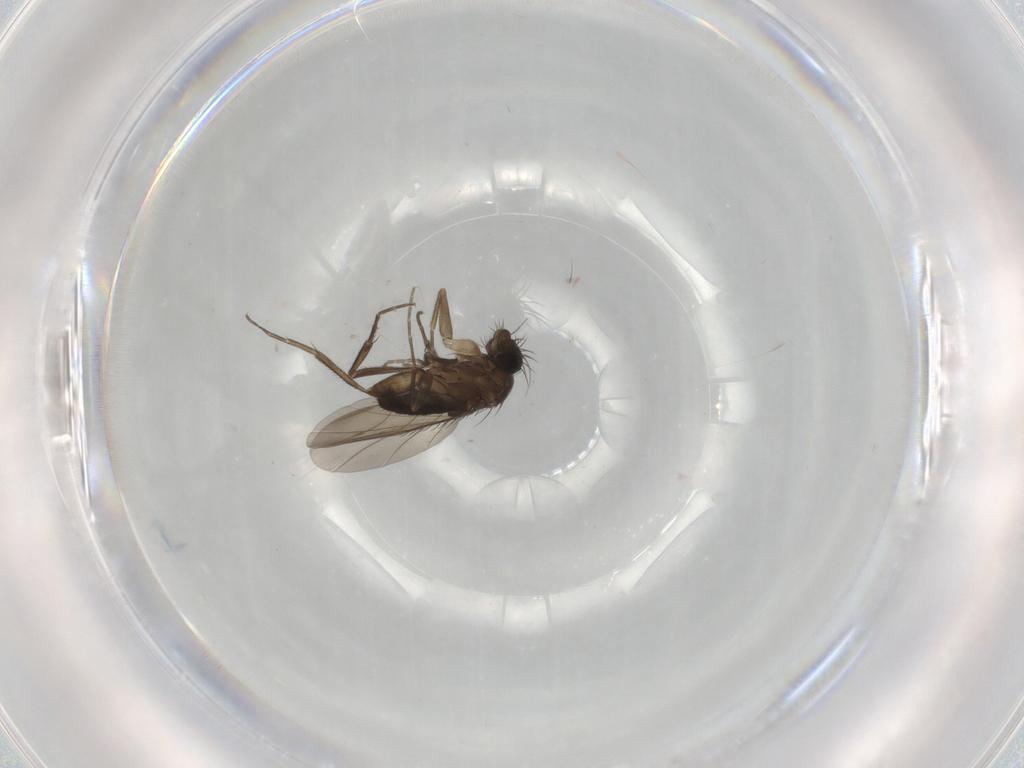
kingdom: Animalia
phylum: Arthropoda
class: Insecta
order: Diptera
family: Phoridae
